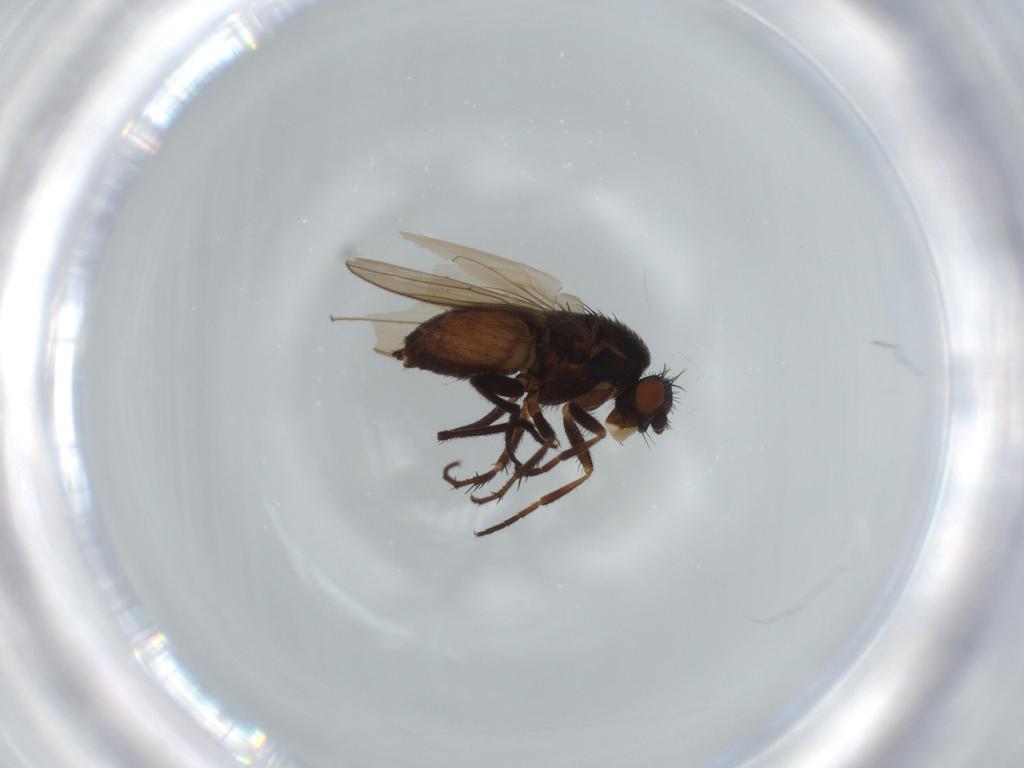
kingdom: Animalia
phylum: Arthropoda
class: Insecta
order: Diptera
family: Sphaeroceridae
